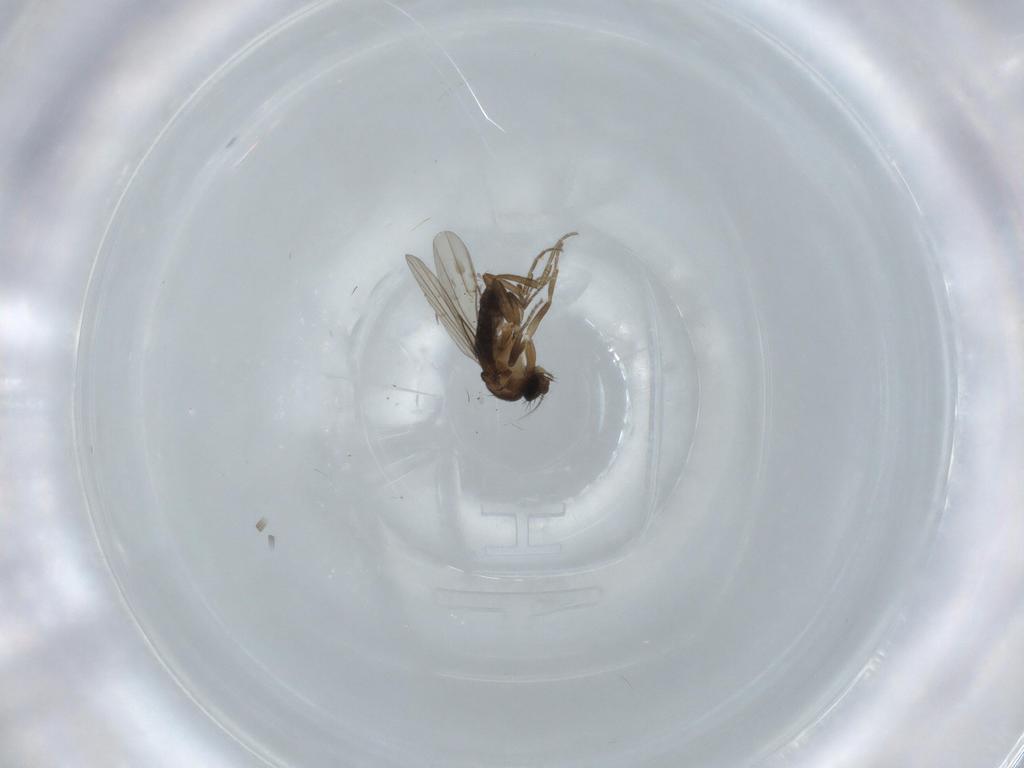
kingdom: Animalia
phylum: Arthropoda
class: Insecta
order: Diptera
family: Phoridae
